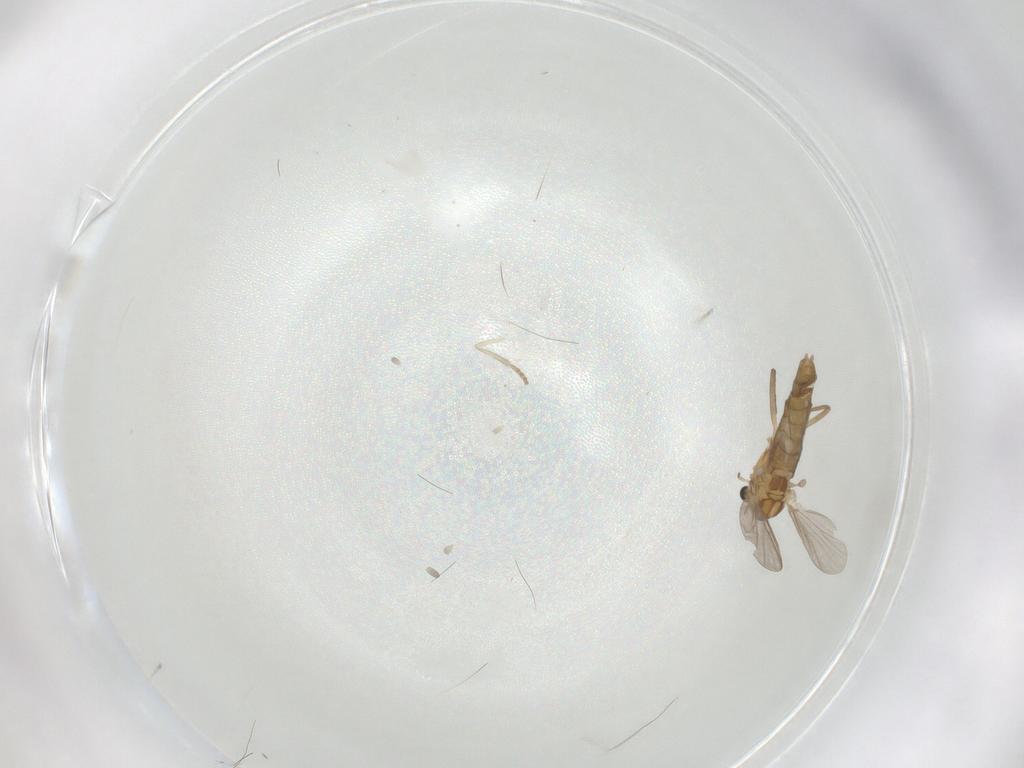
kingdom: Animalia
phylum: Arthropoda
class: Insecta
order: Diptera
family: Chironomidae
